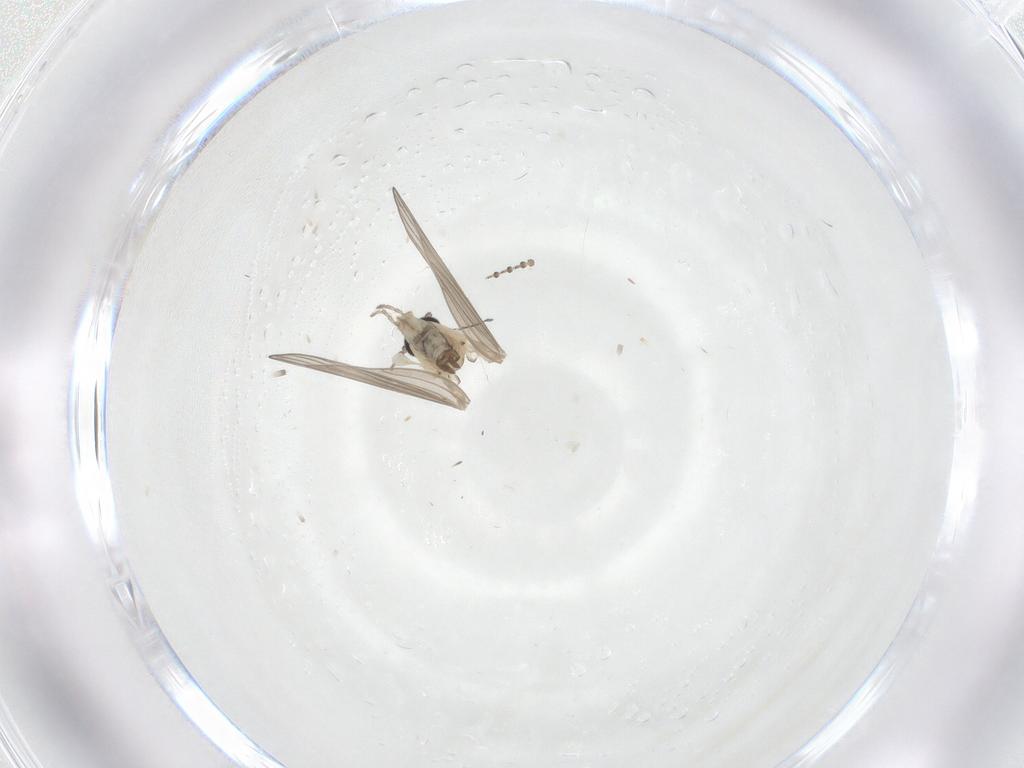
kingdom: Animalia
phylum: Arthropoda
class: Insecta
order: Diptera
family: Psychodidae
